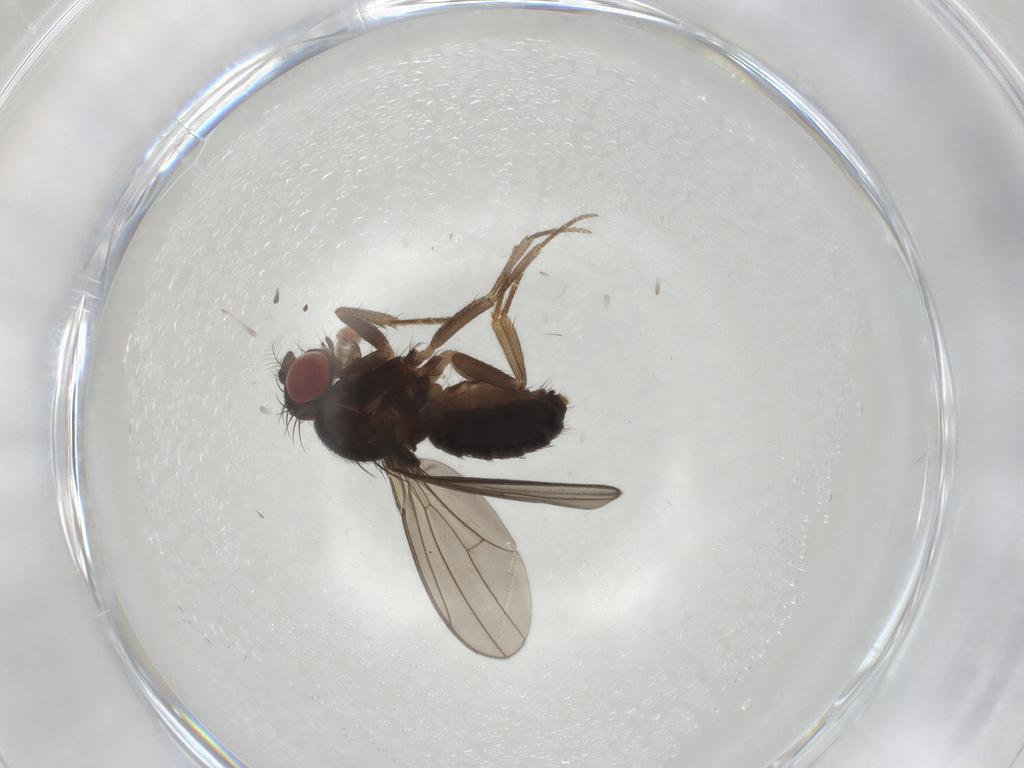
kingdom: Animalia
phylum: Arthropoda
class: Insecta
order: Diptera
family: Drosophilidae
